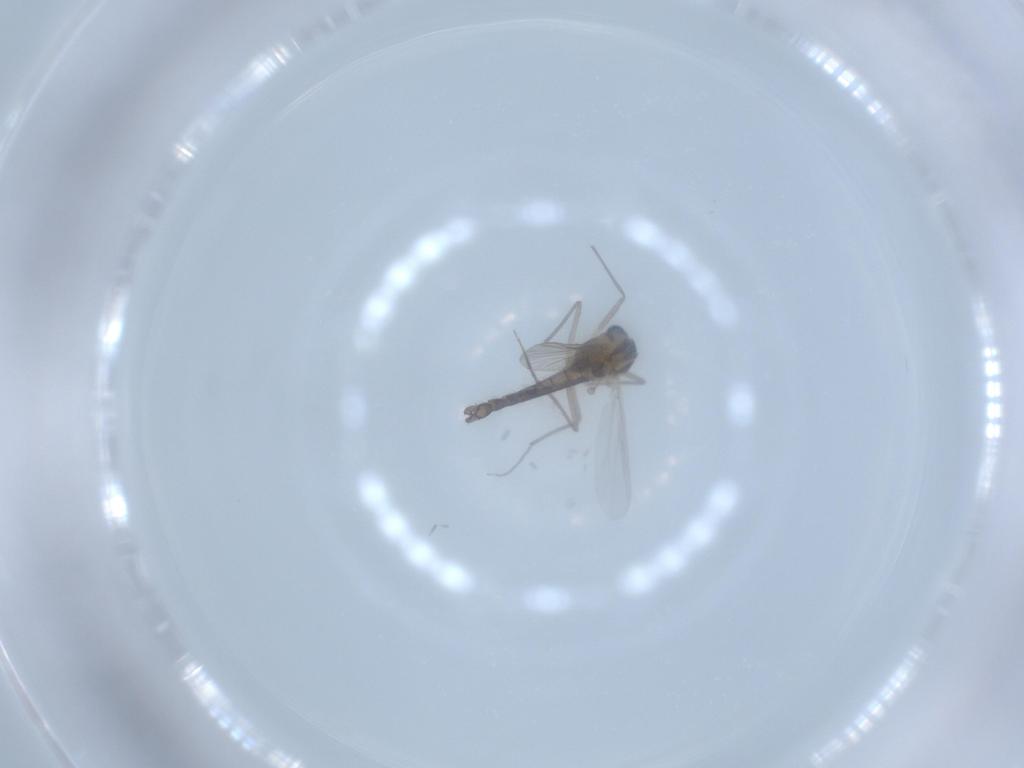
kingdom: Animalia
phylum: Arthropoda
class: Insecta
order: Diptera
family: Chironomidae
